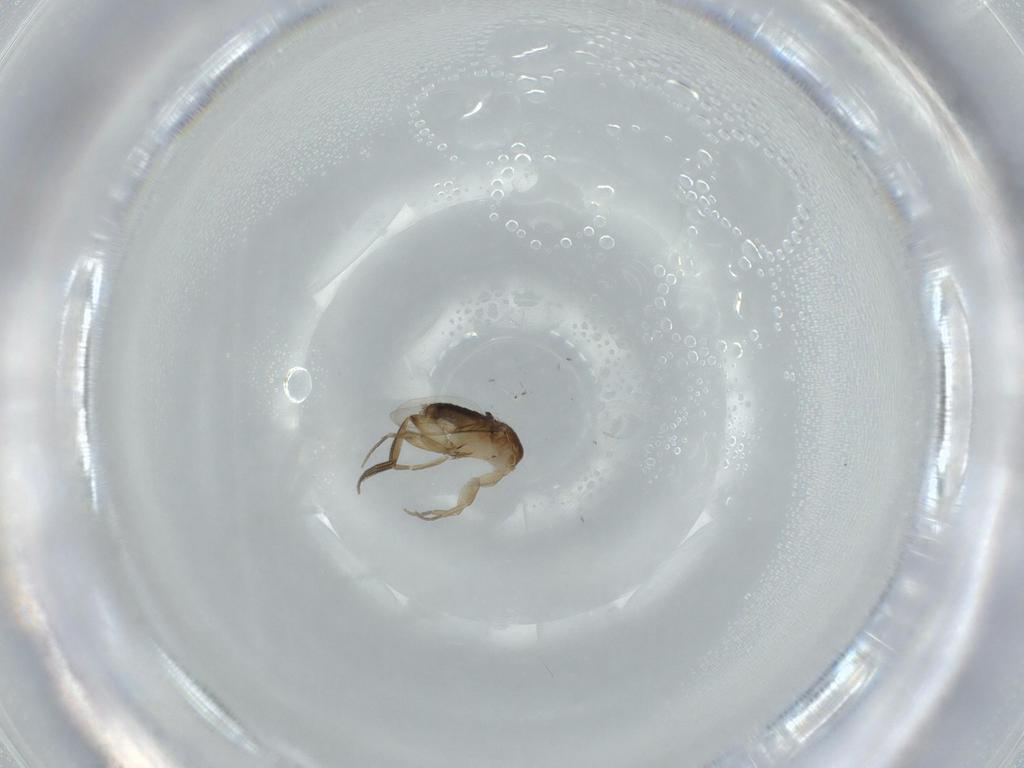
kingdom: Animalia
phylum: Arthropoda
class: Insecta
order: Diptera
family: Phoridae
